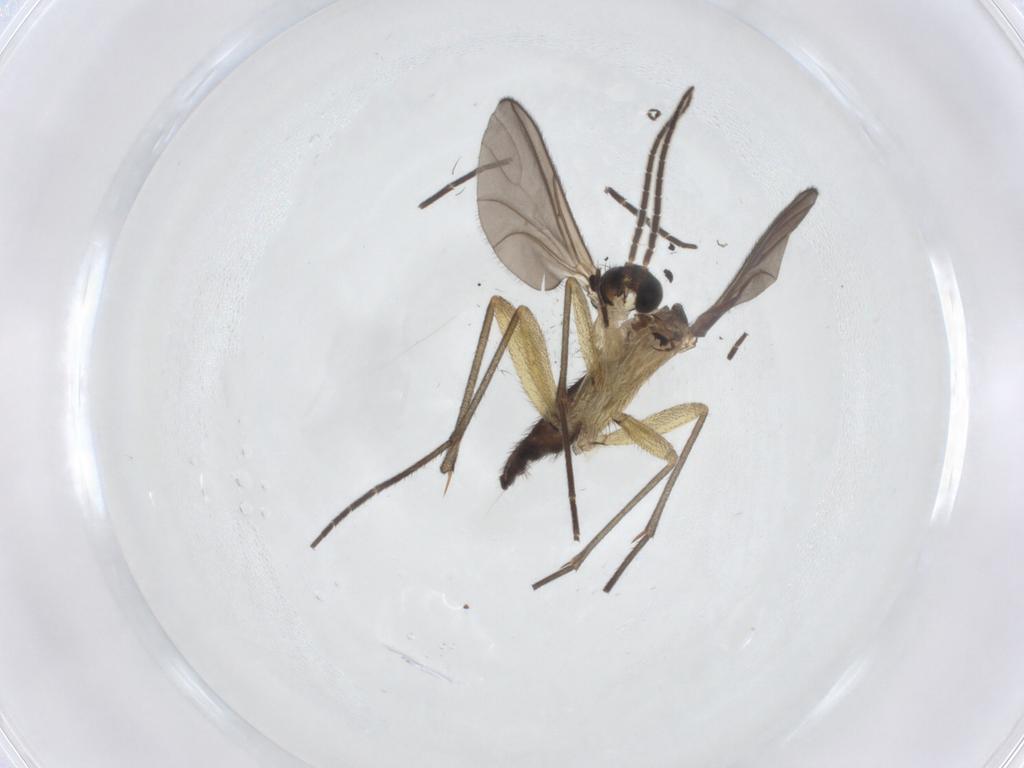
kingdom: Animalia
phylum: Arthropoda
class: Insecta
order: Diptera
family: Sciaridae
